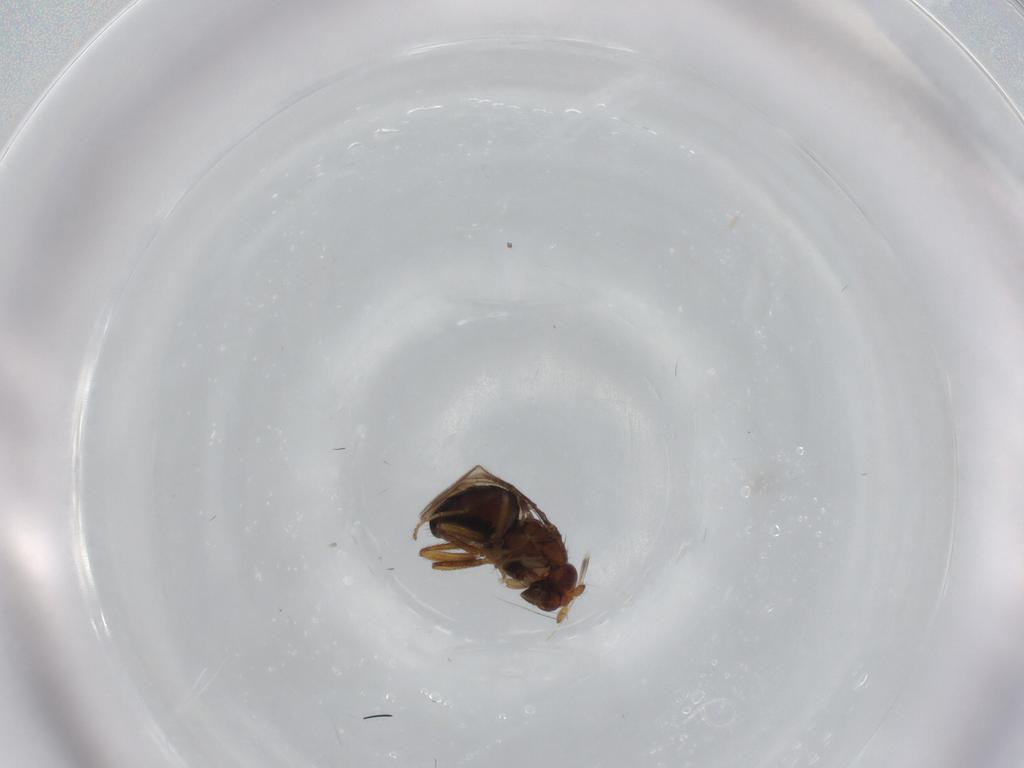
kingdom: Animalia
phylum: Arthropoda
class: Insecta
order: Diptera
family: Sphaeroceridae
